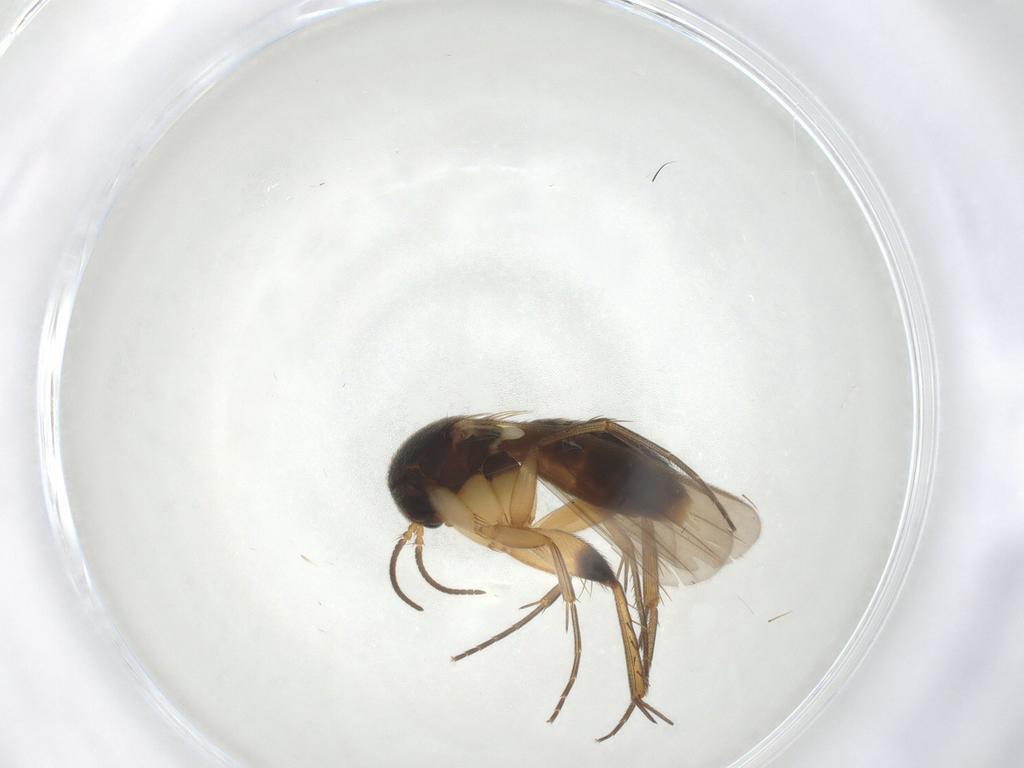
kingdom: Animalia
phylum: Arthropoda
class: Insecta
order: Diptera
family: Mycetophilidae
